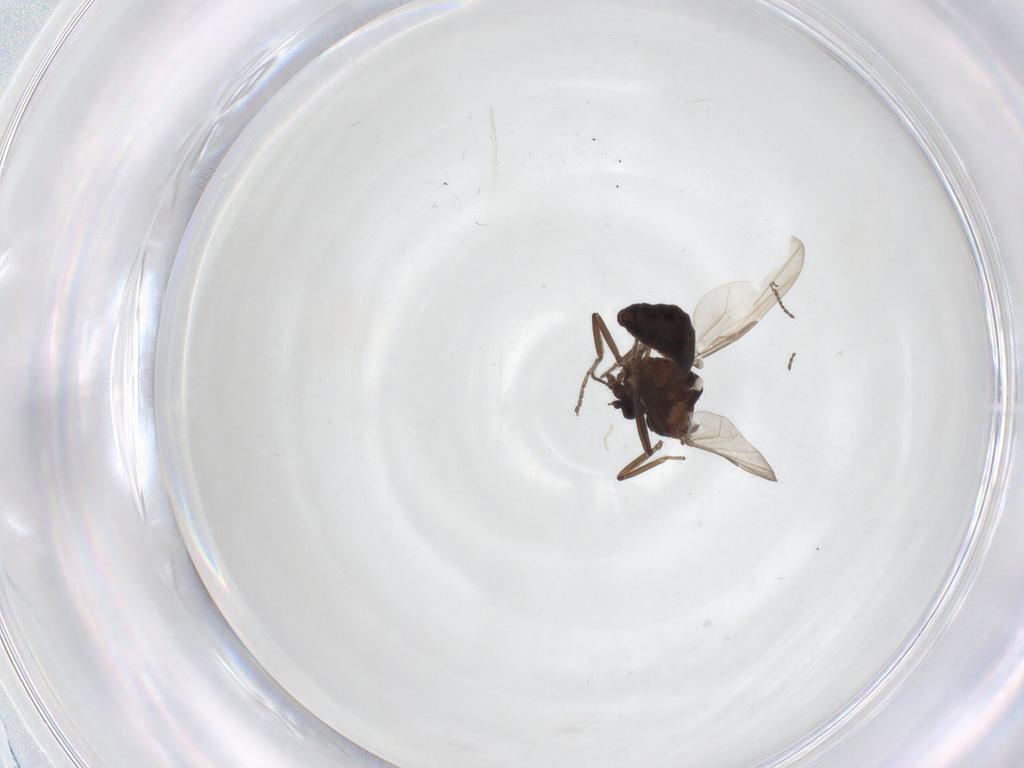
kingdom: Animalia
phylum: Arthropoda
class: Insecta
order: Diptera
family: Ceratopogonidae
